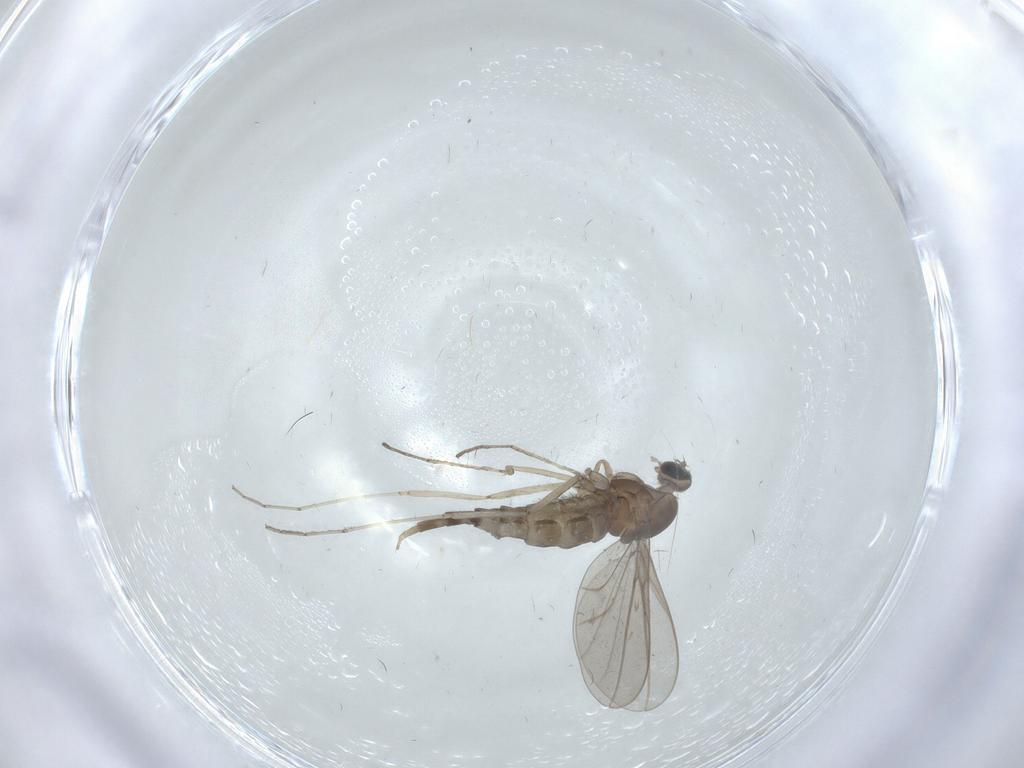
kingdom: Animalia
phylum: Arthropoda
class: Insecta
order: Diptera
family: Cecidomyiidae
